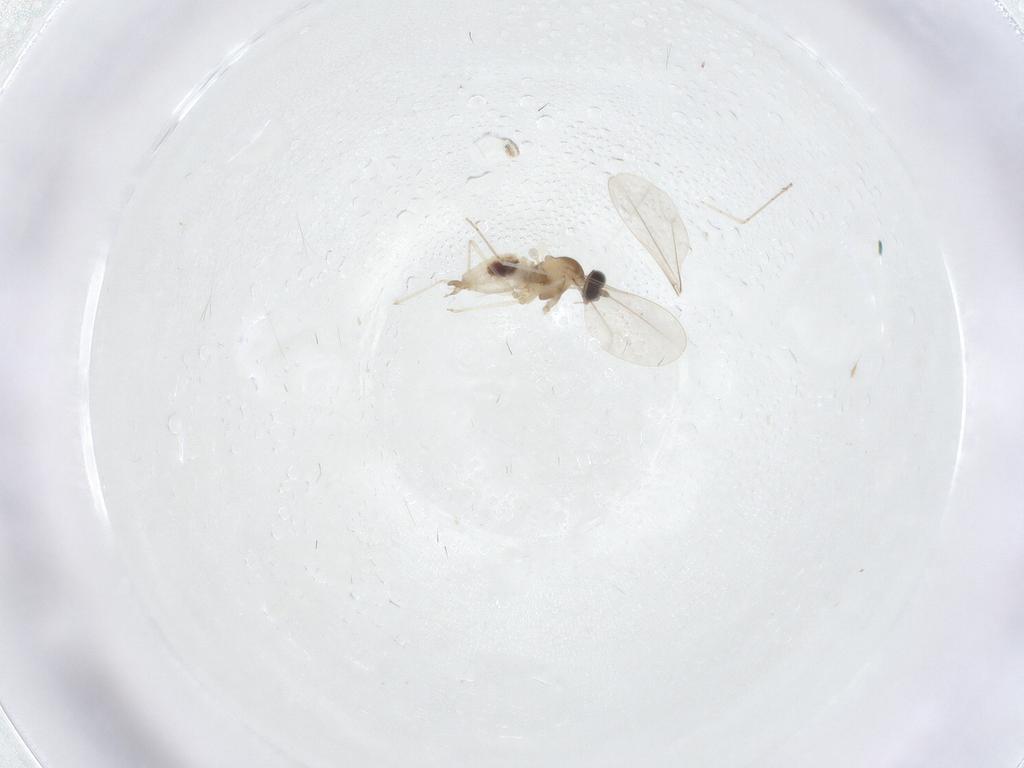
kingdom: Animalia
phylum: Arthropoda
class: Insecta
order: Diptera
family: Cecidomyiidae
